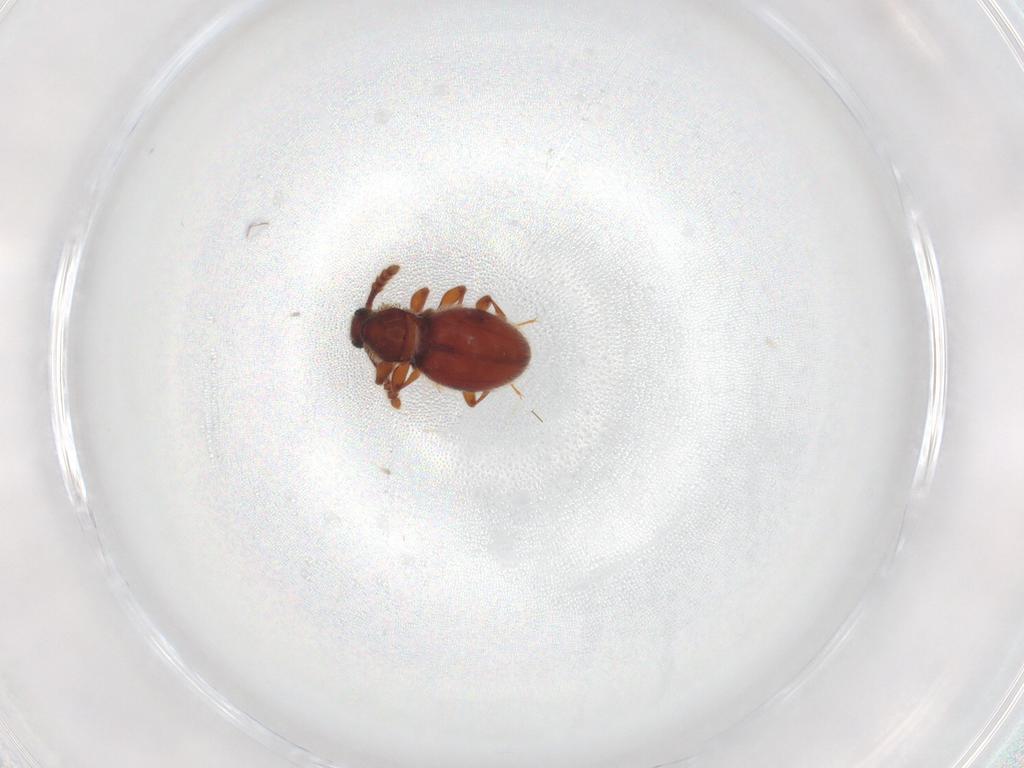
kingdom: Animalia
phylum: Arthropoda
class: Insecta
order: Coleoptera
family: Staphylinidae
